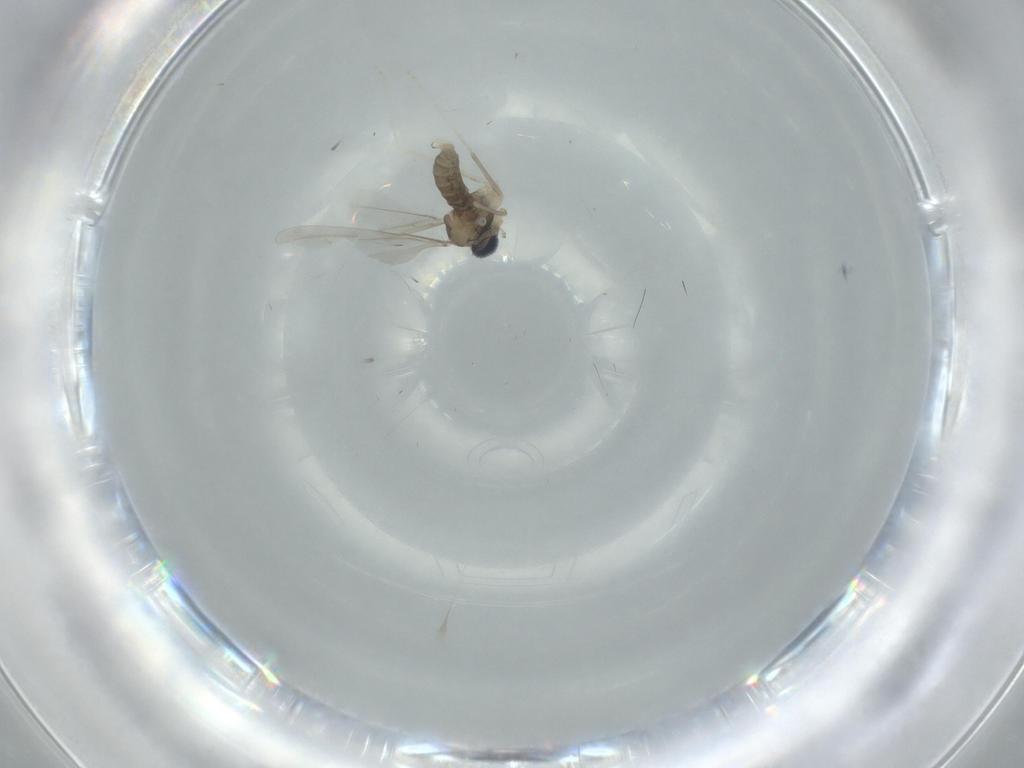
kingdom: Animalia
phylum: Arthropoda
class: Insecta
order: Diptera
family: Cecidomyiidae
